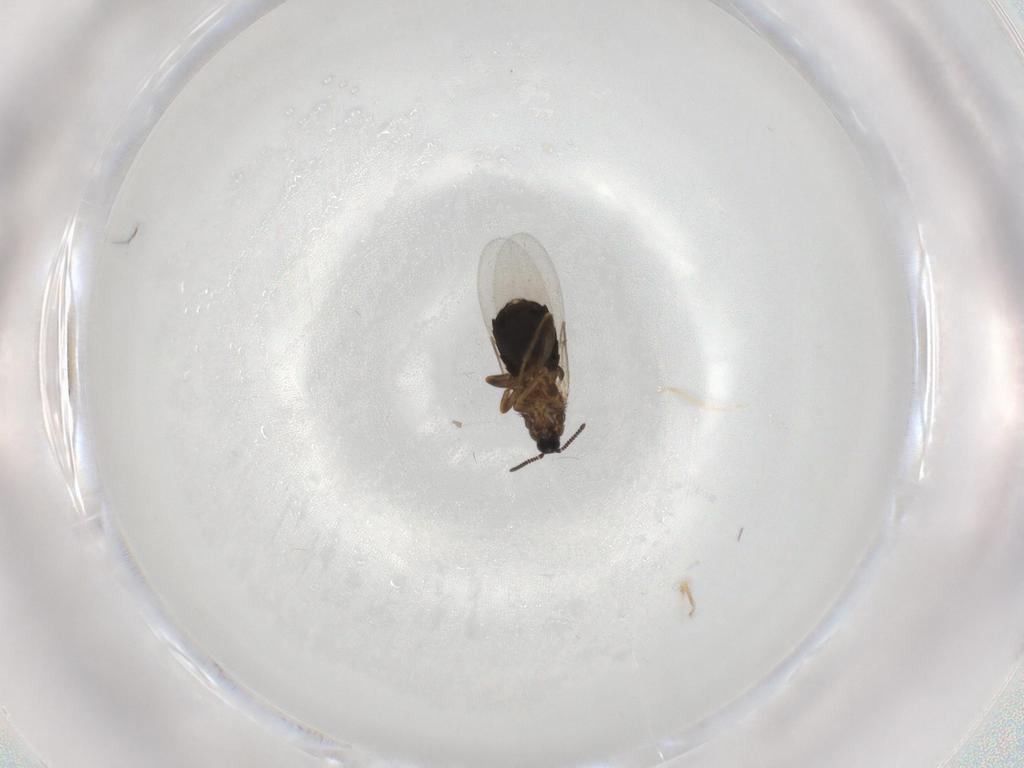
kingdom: Animalia
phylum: Arthropoda
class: Insecta
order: Diptera
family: Scatopsidae
